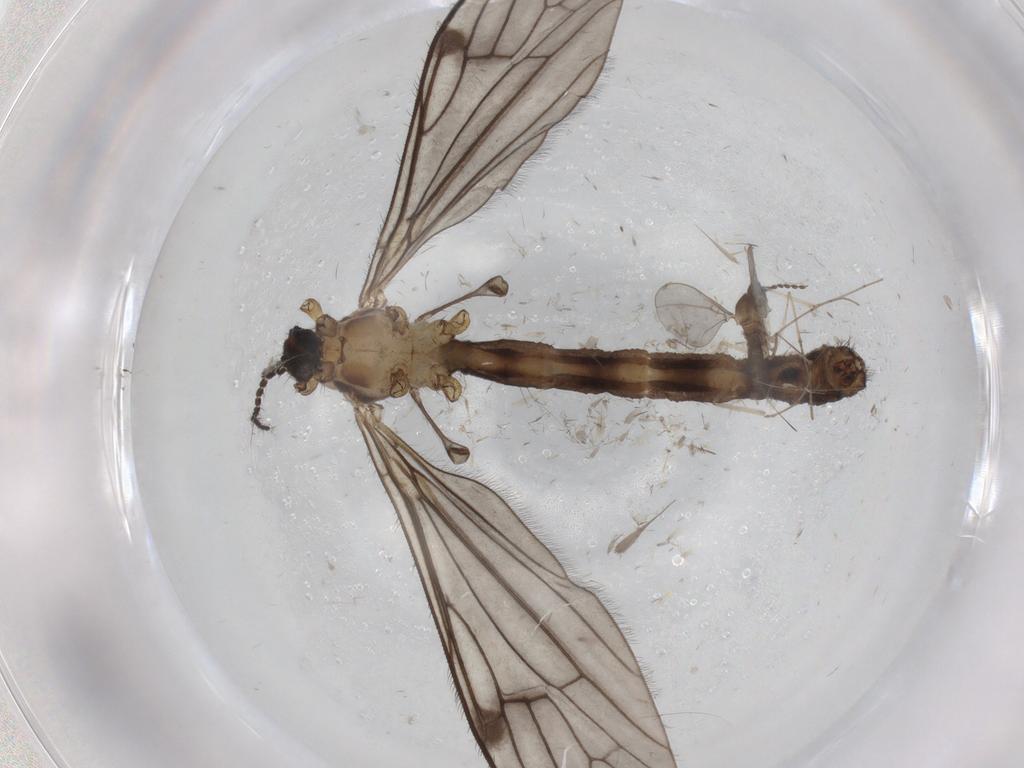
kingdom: Animalia
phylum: Arthropoda
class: Insecta
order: Diptera
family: Limoniidae
